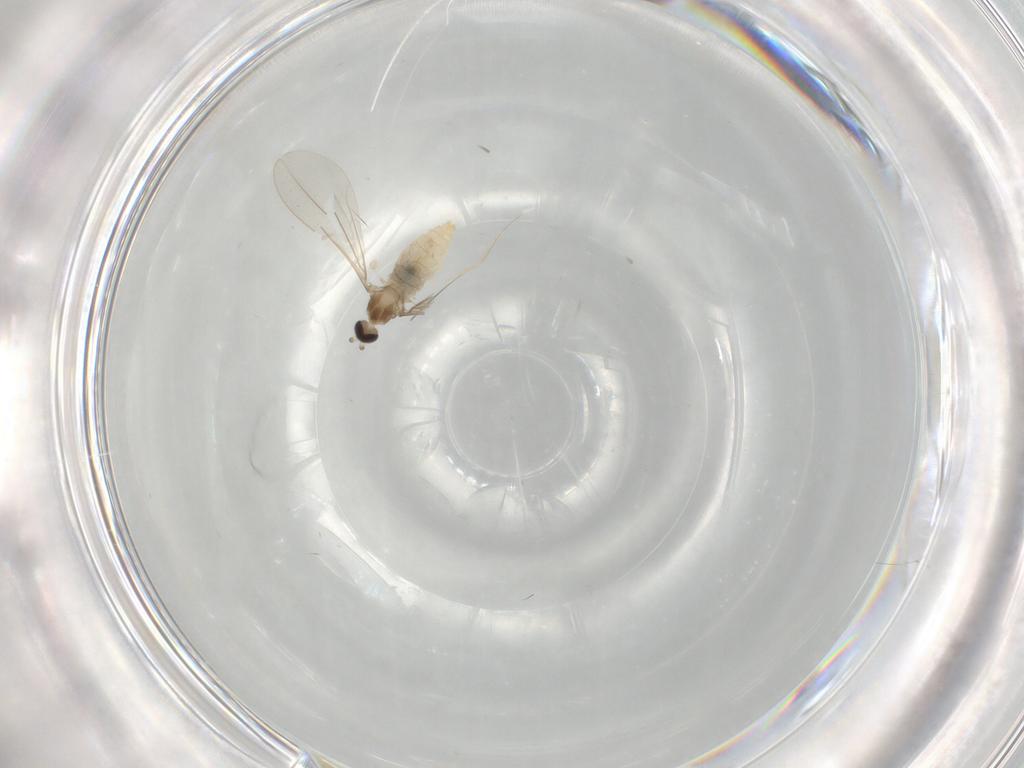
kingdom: Animalia
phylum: Arthropoda
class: Insecta
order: Diptera
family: Cecidomyiidae
